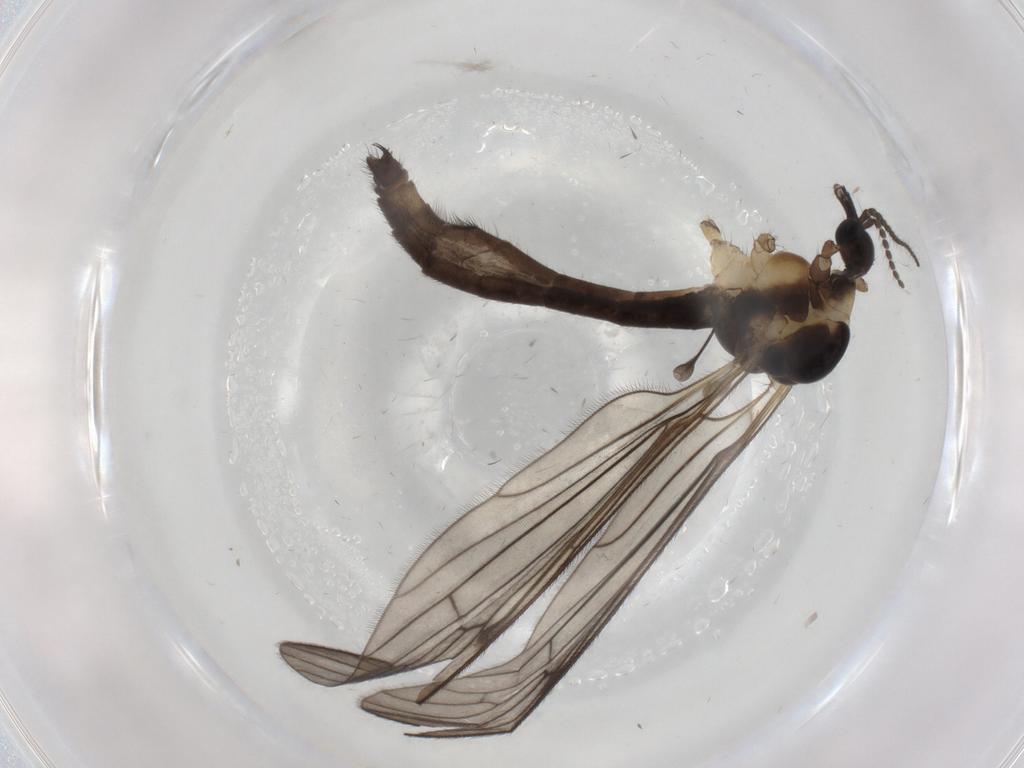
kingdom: Animalia
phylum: Arthropoda
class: Insecta
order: Diptera
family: Limoniidae
